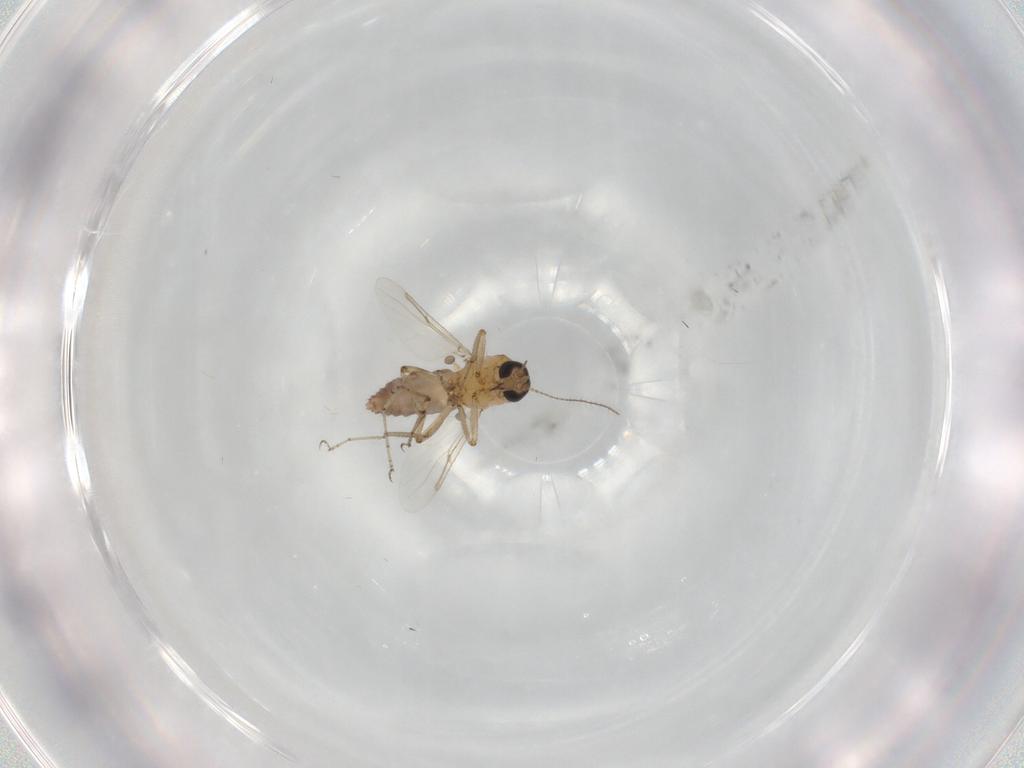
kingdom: Animalia
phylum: Arthropoda
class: Insecta
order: Diptera
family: Ceratopogonidae
